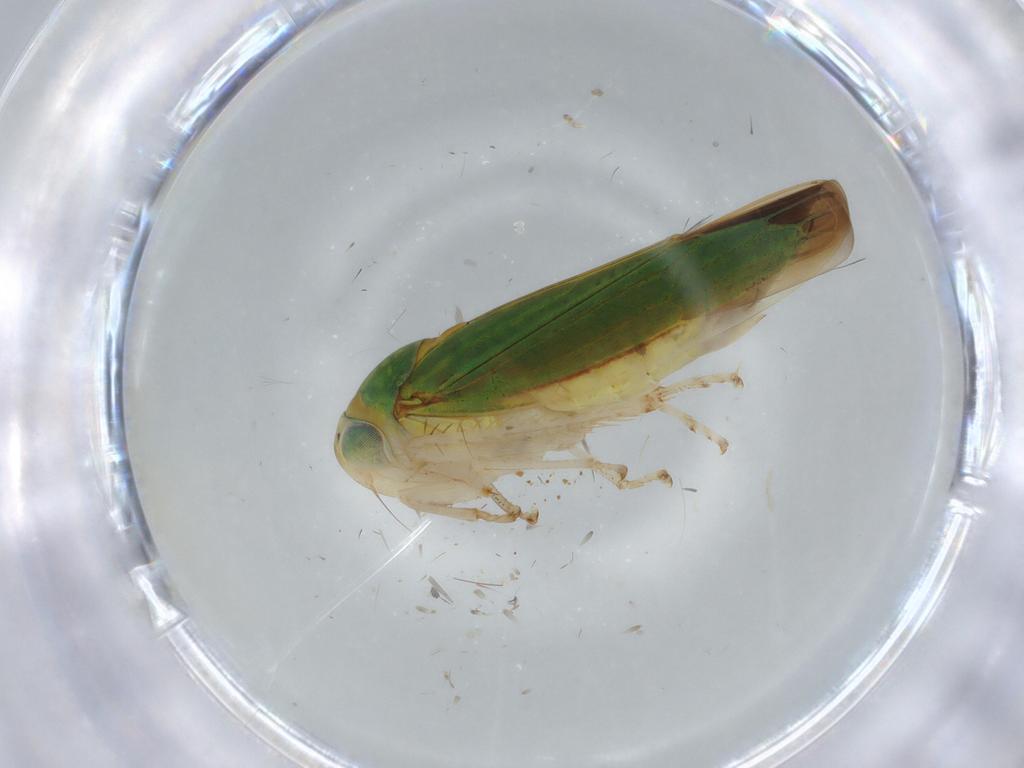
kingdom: Animalia
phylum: Arthropoda
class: Insecta
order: Hemiptera
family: Cicadellidae
